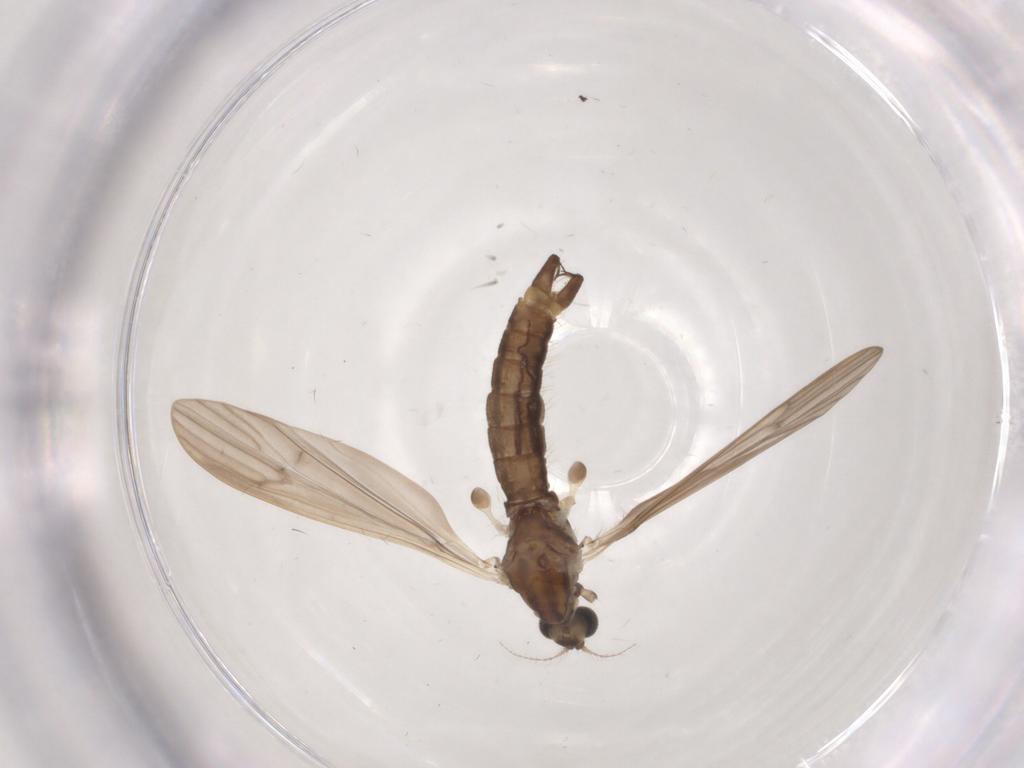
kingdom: Animalia
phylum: Arthropoda
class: Insecta
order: Diptera
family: Limoniidae
